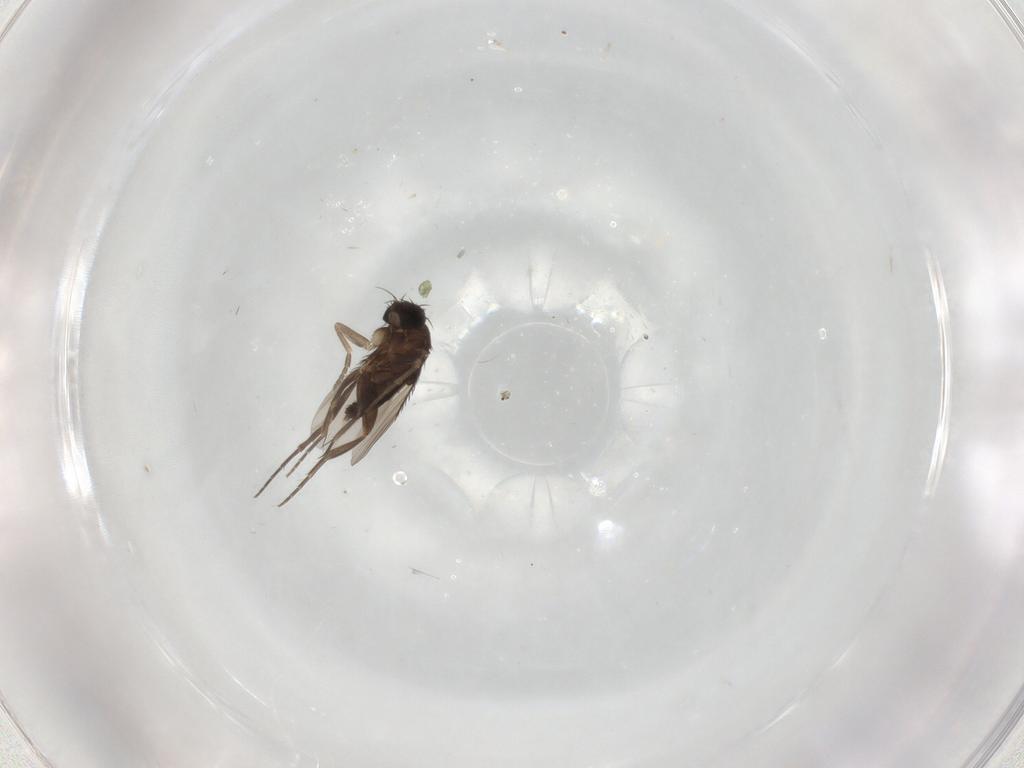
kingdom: Animalia
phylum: Arthropoda
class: Insecta
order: Diptera
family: Phoridae
